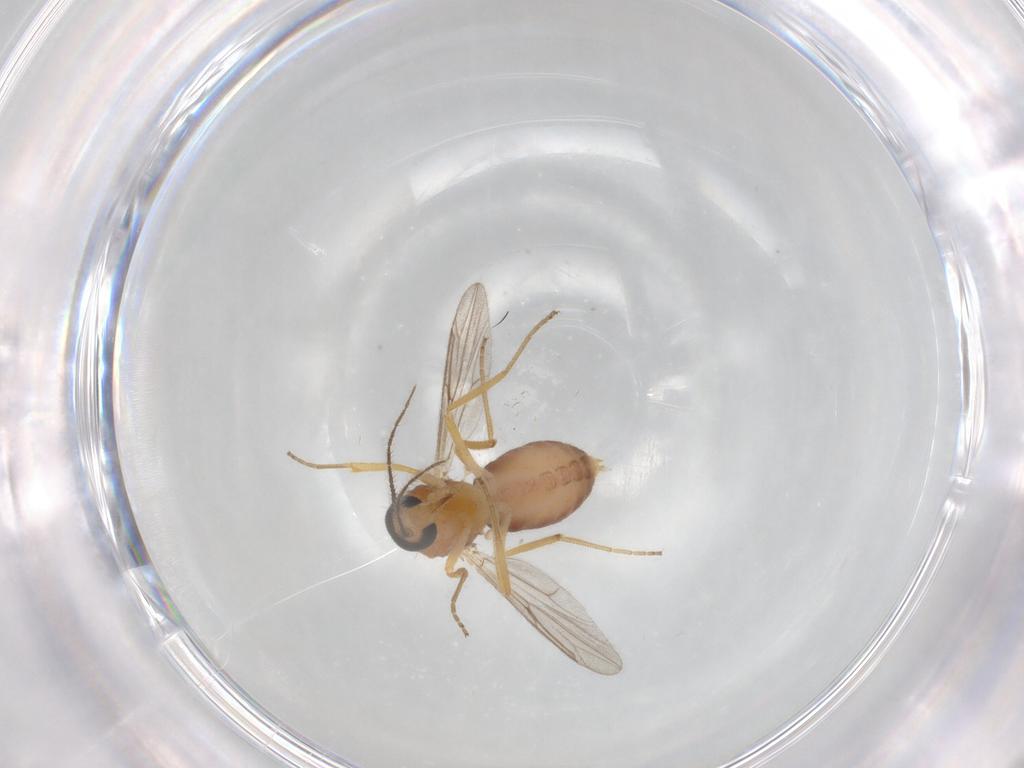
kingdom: Animalia
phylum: Arthropoda
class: Insecta
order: Diptera
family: Ceratopogonidae
